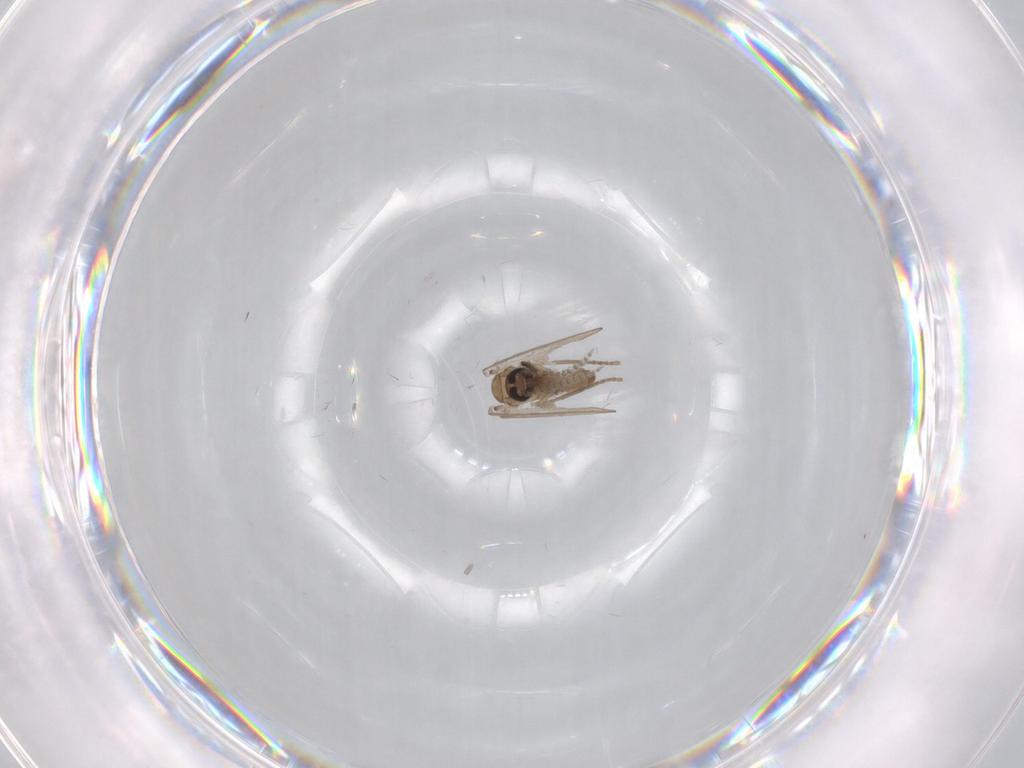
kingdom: Animalia
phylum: Arthropoda
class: Insecta
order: Diptera
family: Psychodidae
